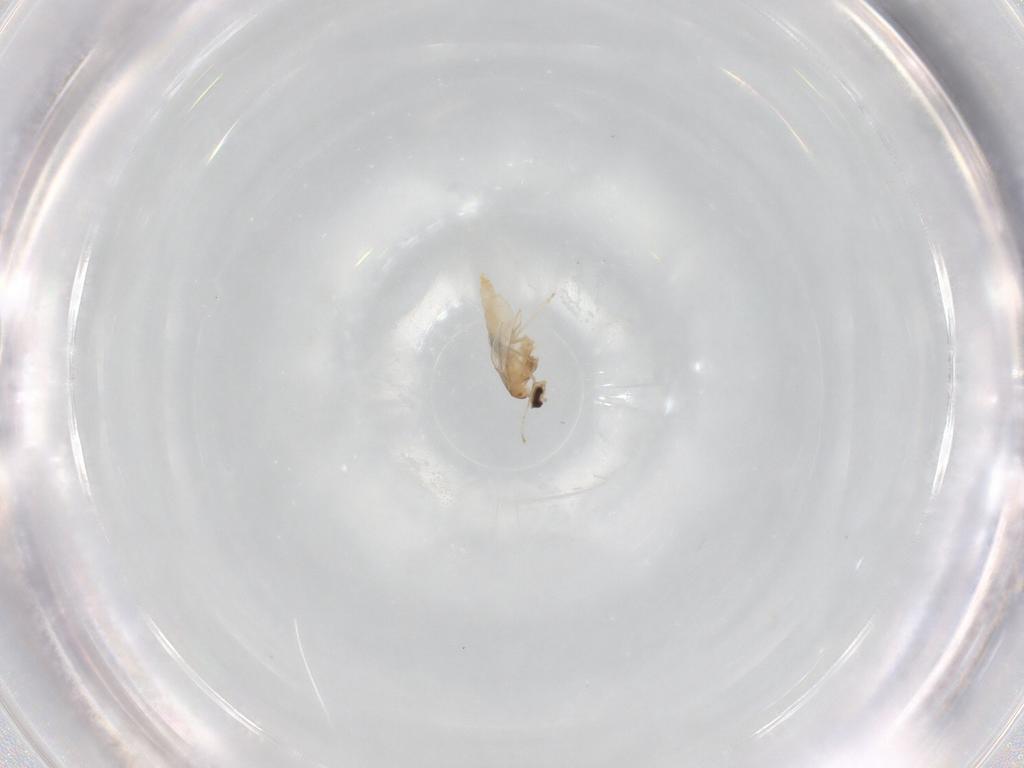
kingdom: Animalia
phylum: Arthropoda
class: Insecta
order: Diptera
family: Cecidomyiidae
